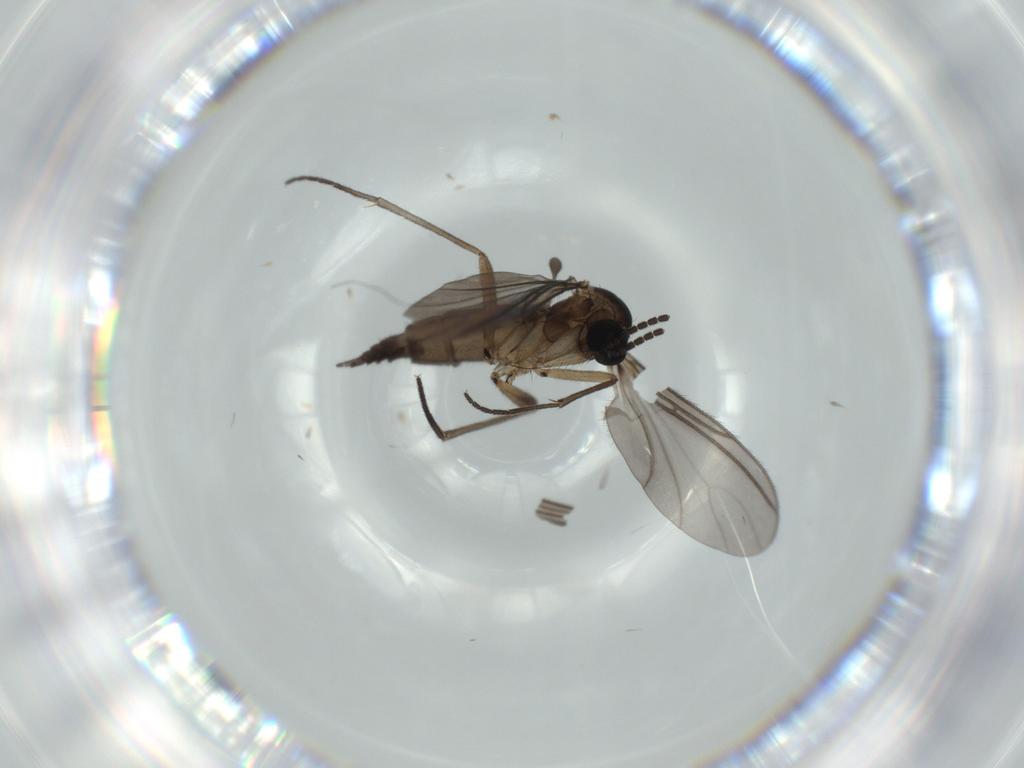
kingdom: Animalia
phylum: Arthropoda
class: Insecta
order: Diptera
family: Sciaridae
